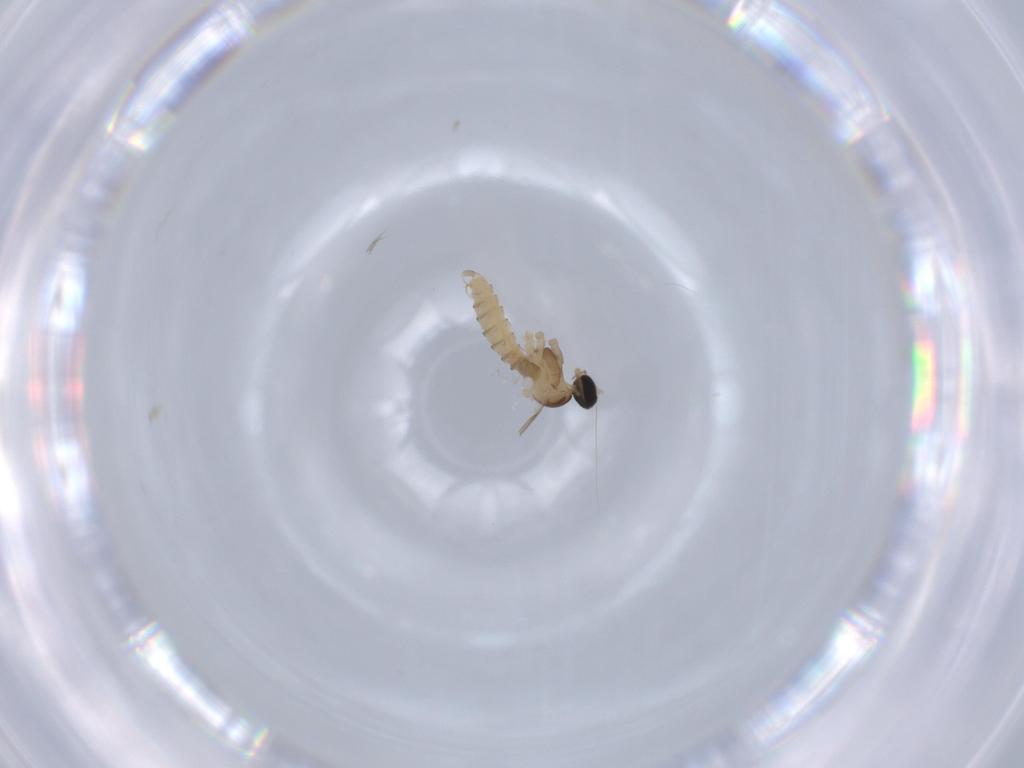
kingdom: Animalia
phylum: Arthropoda
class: Insecta
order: Diptera
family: Cecidomyiidae
